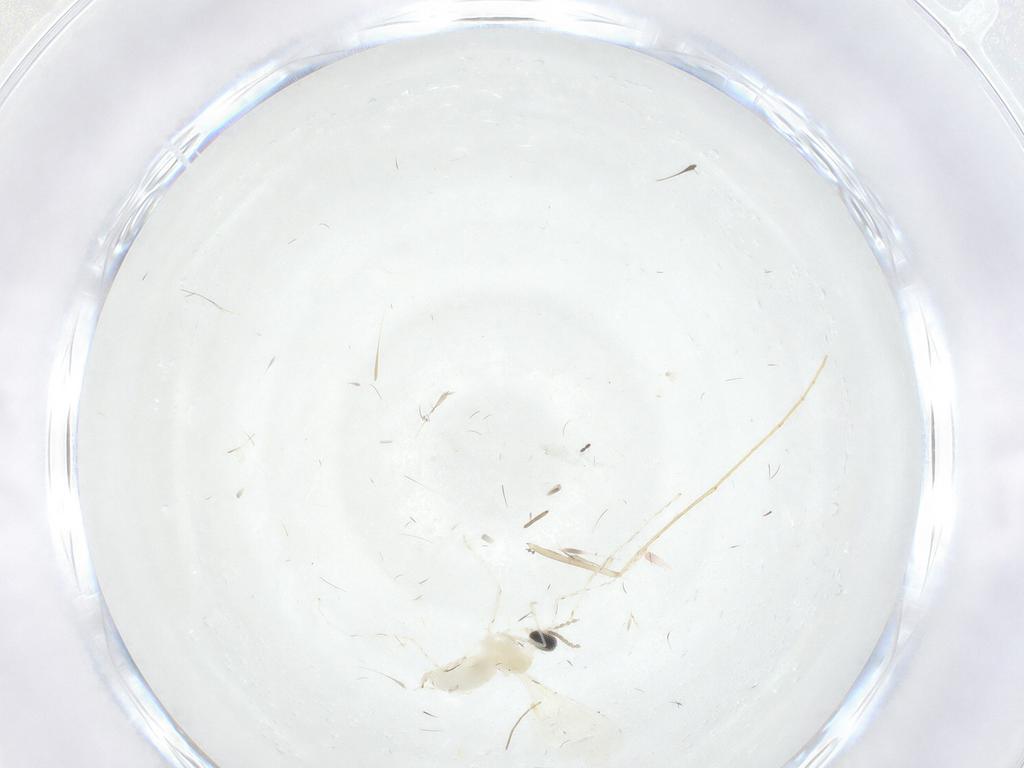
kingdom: Animalia
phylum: Arthropoda
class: Insecta
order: Diptera
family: Cecidomyiidae
